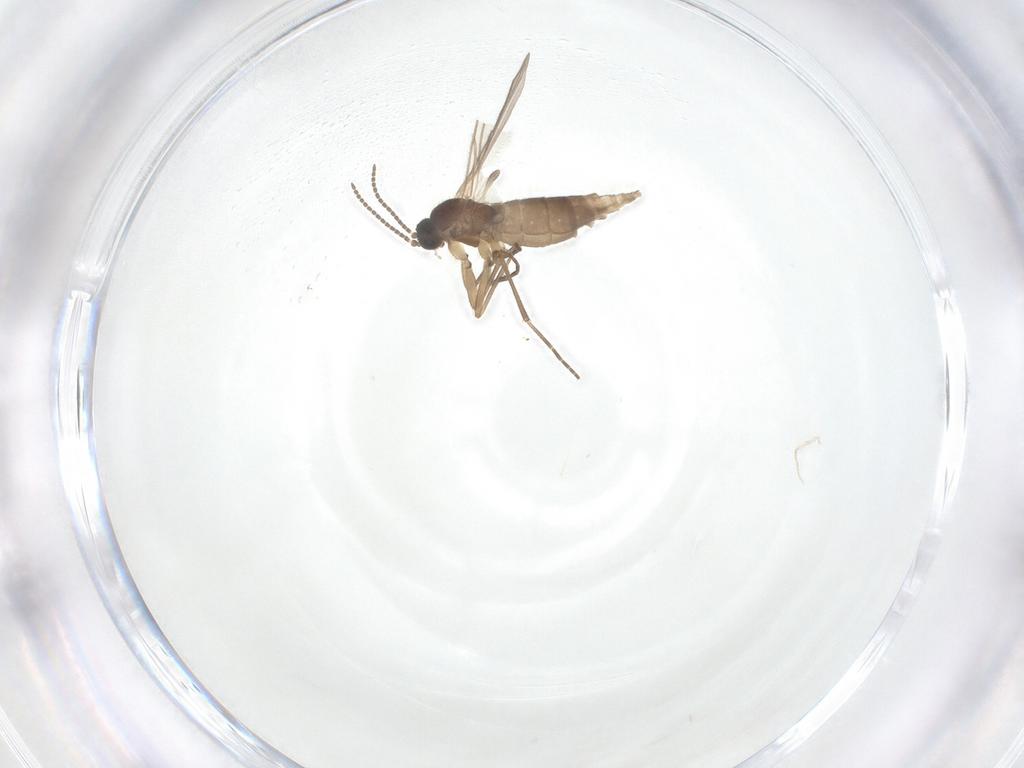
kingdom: Animalia
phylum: Arthropoda
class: Insecta
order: Diptera
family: Sciaridae
